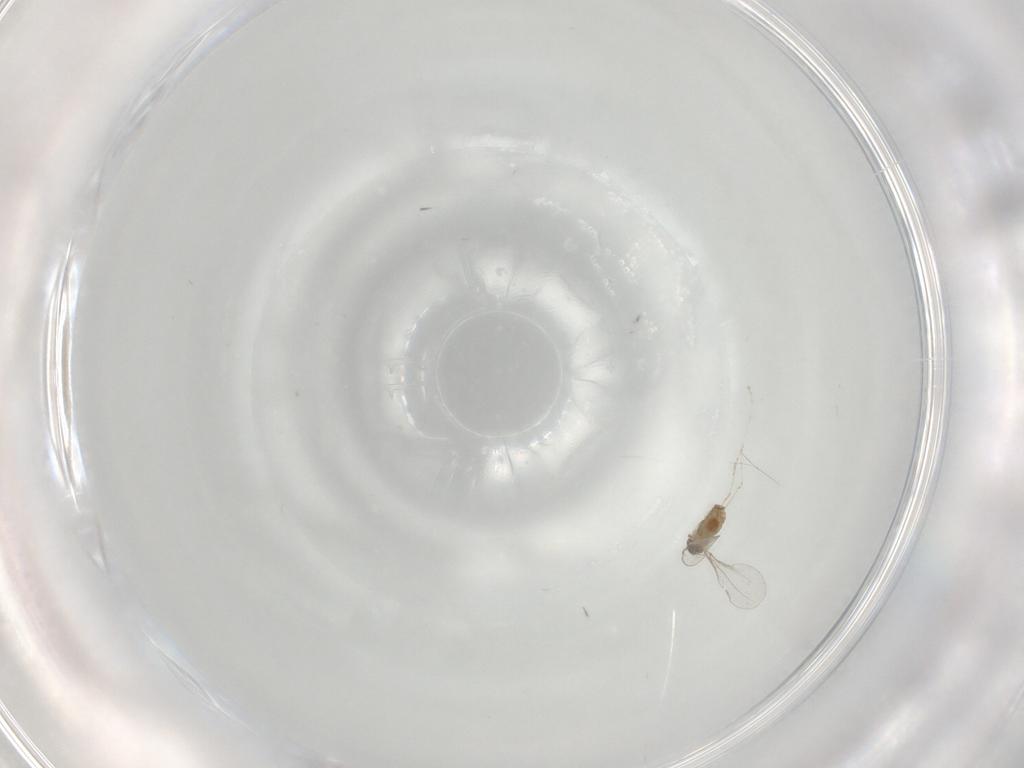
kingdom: Animalia
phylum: Arthropoda
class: Insecta
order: Diptera
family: Cecidomyiidae
